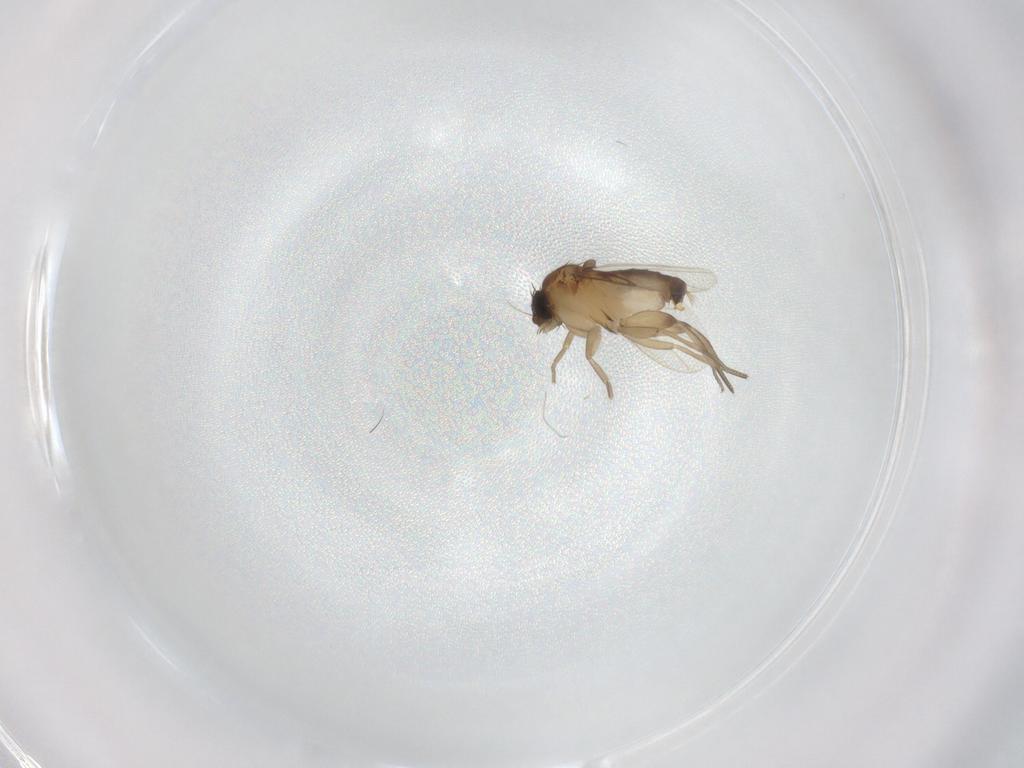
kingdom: Animalia
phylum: Arthropoda
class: Insecta
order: Diptera
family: Phoridae
